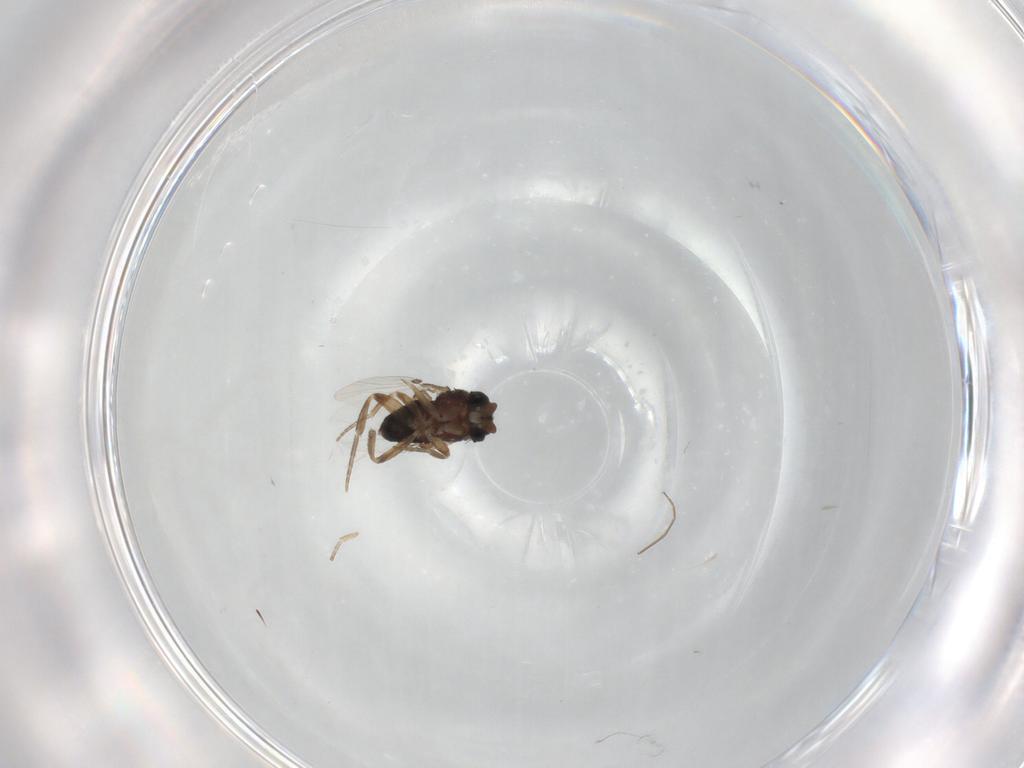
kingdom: Animalia
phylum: Arthropoda
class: Insecta
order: Diptera
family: Phoridae
